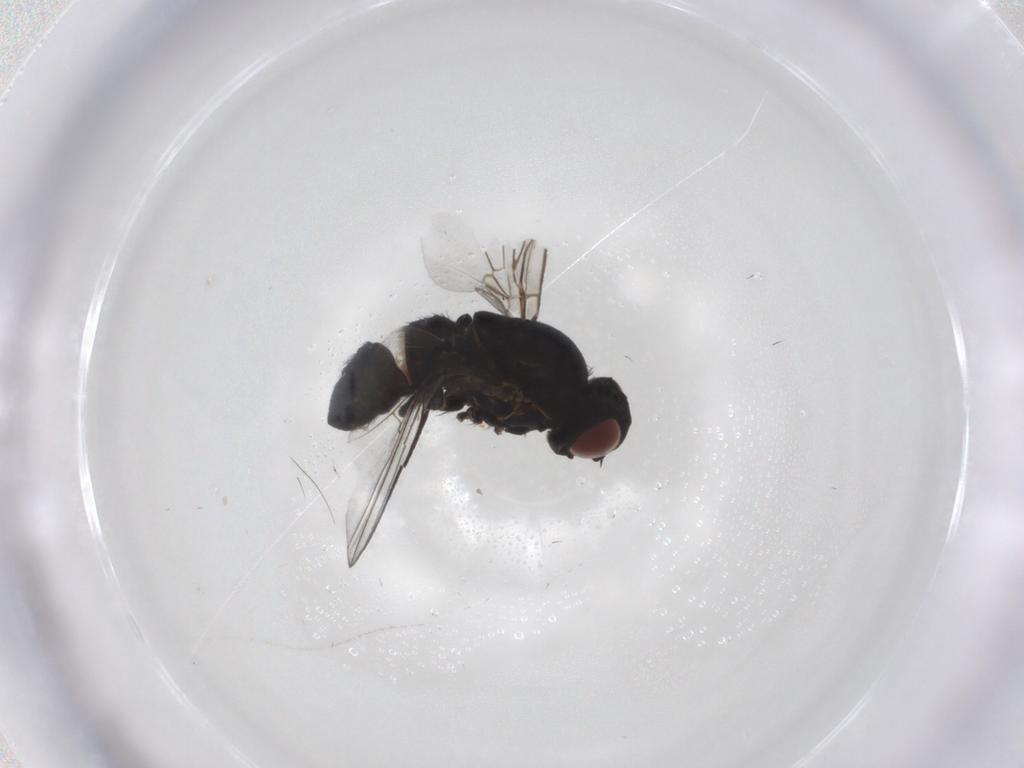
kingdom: Animalia
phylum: Arthropoda
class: Insecta
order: Diptera
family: Agromyzidae
